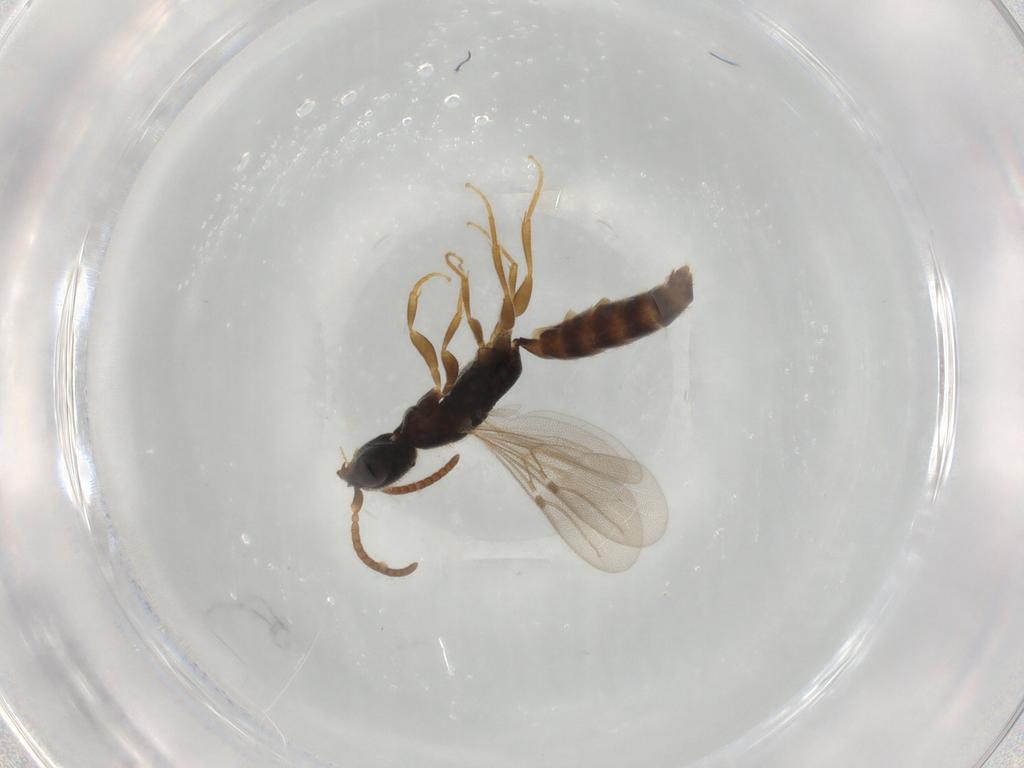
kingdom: Animalia
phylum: Arthropoda
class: Insecta
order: Hymenoptera
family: Bethylidae
